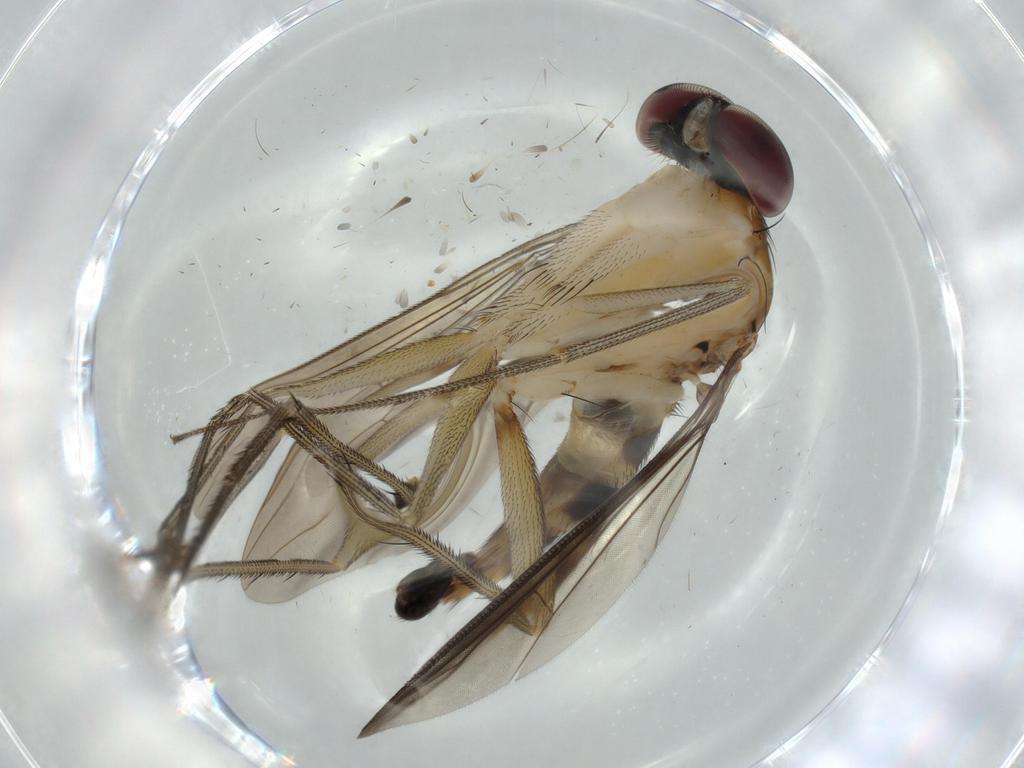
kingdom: Animalia
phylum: Arthropoda
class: Insecta
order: Diptera
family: Dolichopodidae
